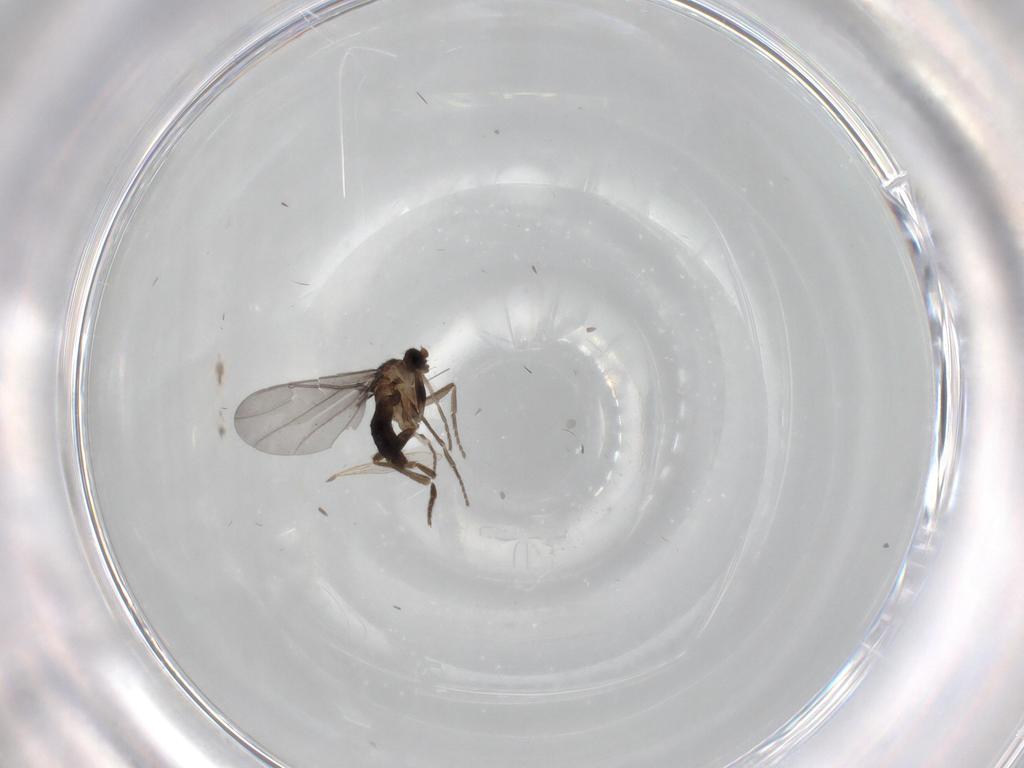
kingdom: Animalia
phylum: Arthropoda
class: Insecta
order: Diptera
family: Phoridae
